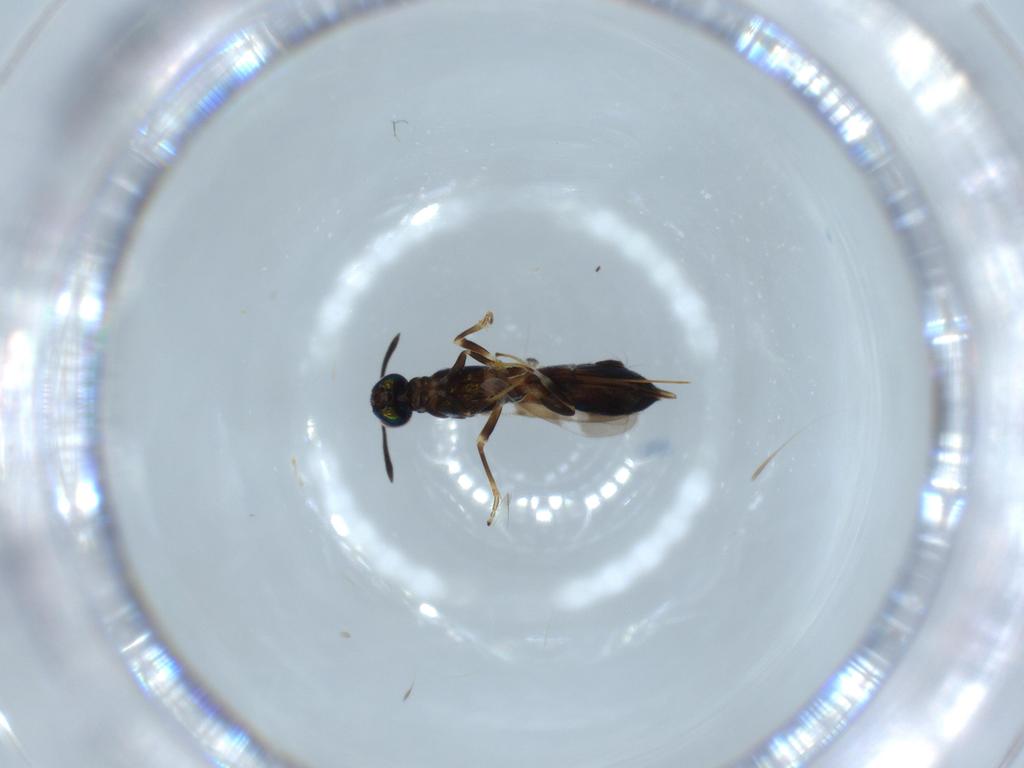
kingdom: Animalia
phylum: Arthropoda
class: Insecta
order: Hymenoptera
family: Eupelmidae
